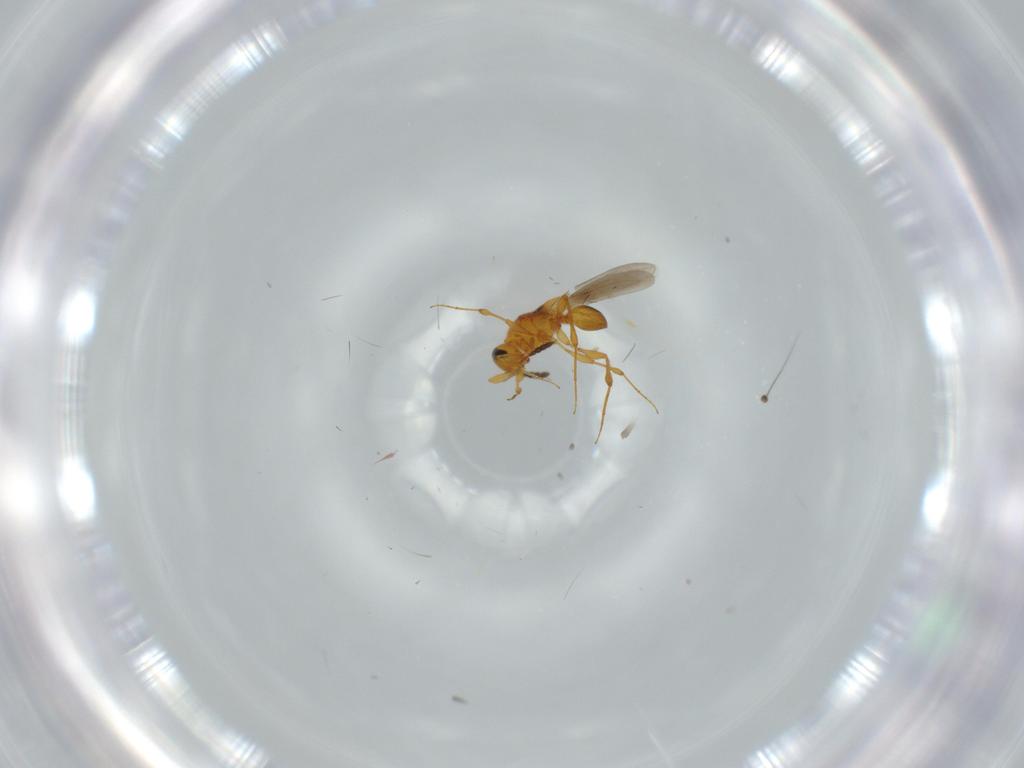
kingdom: Animalia
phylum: Arthropoda
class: Insecta
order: Hymenoptera
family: Platygastridae
